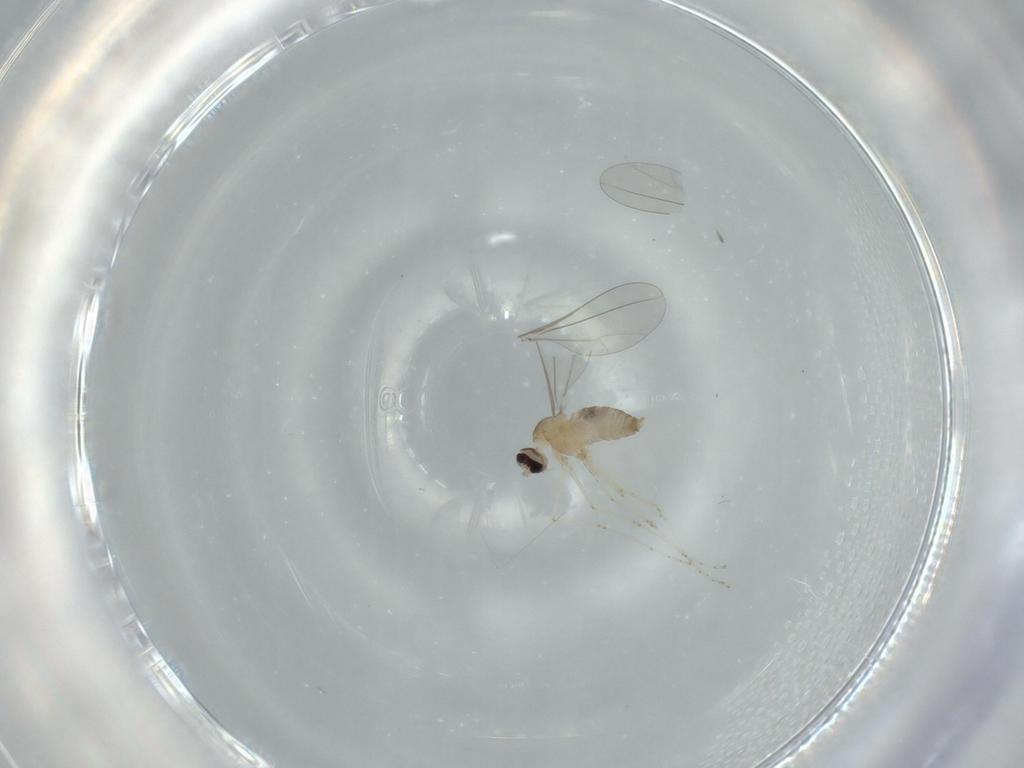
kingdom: Animalia
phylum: Arthropoda
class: Insecta
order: Diptera
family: Cecidomyiidae
